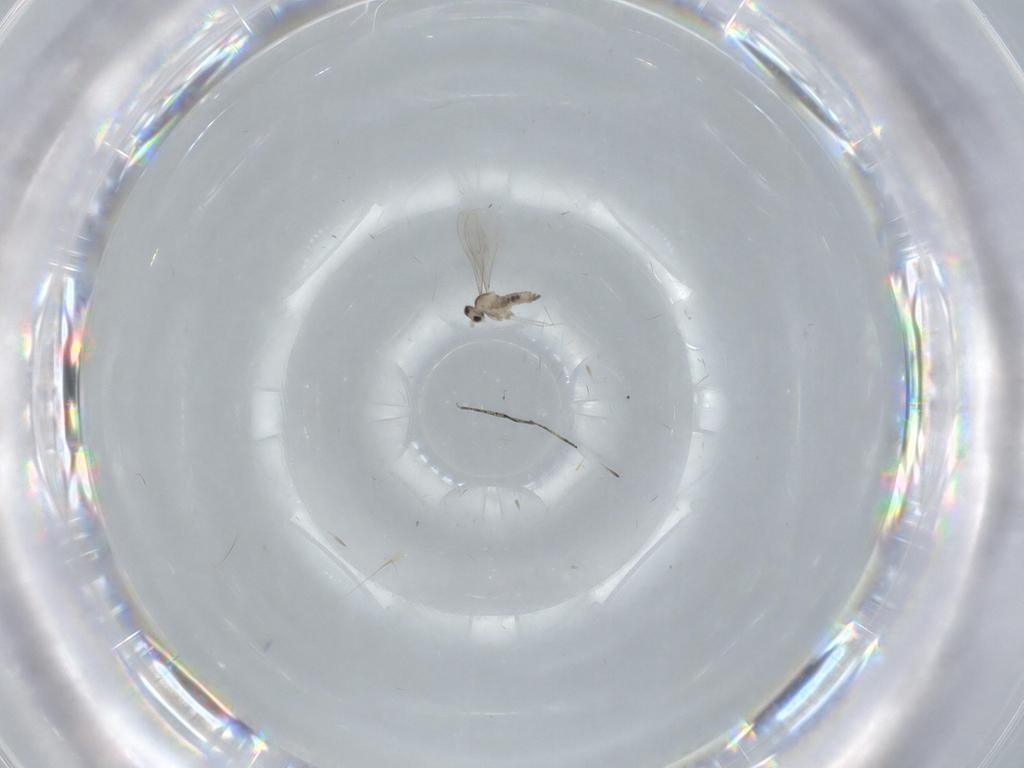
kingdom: Animalia
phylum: Arthropoda
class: Insecta
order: Diptera
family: Cecidomyiidae
